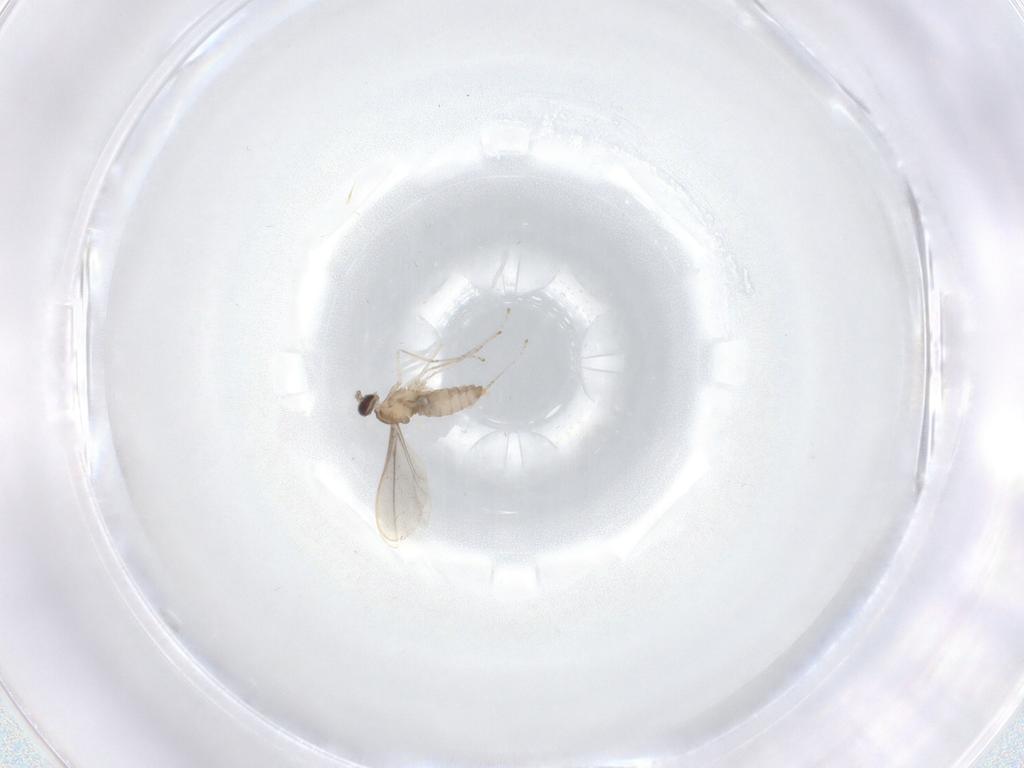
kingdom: Animalia
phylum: Arthropoda
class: Insecta
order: Diptera
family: Cecidomyiidae
